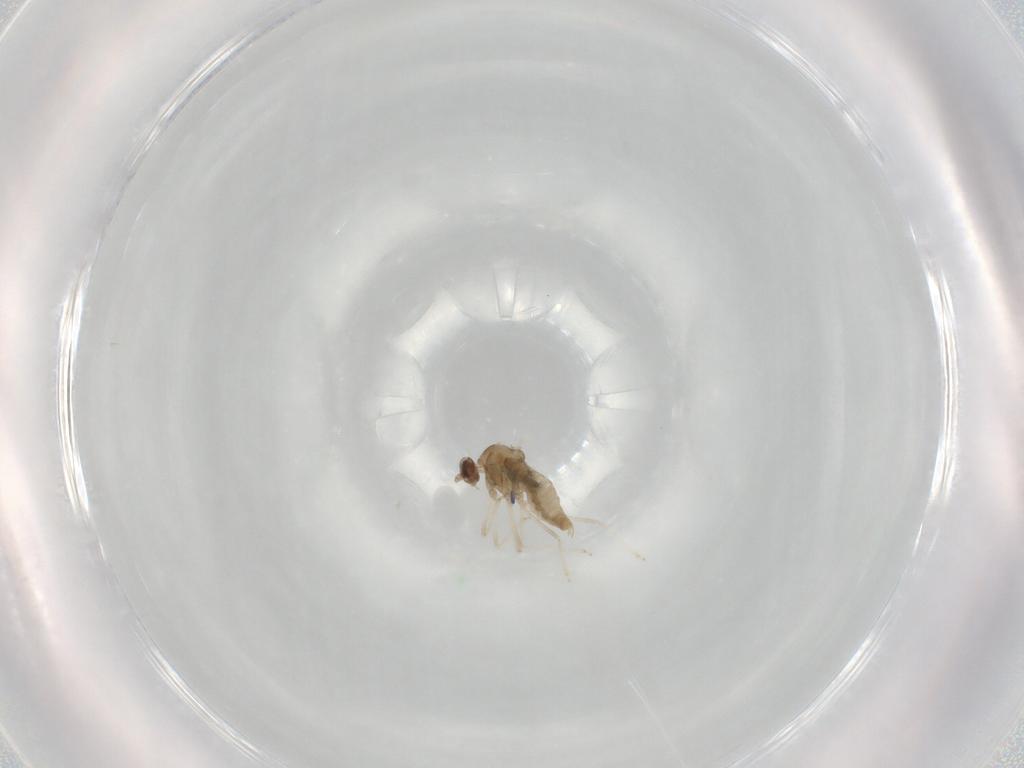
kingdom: Animalia
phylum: Arthropoda
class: Insecta
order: Diptera
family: Cecidomyiidae
